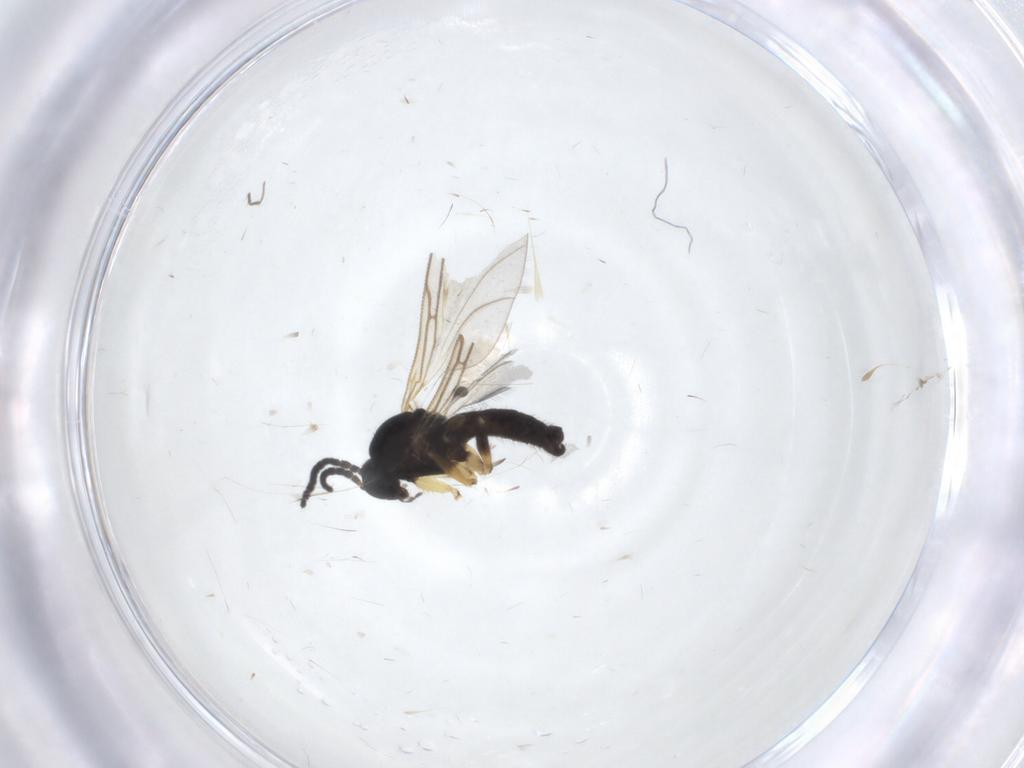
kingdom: Animalia
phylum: Arthropoda
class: Insecta
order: Diptera
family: Sciaridae
